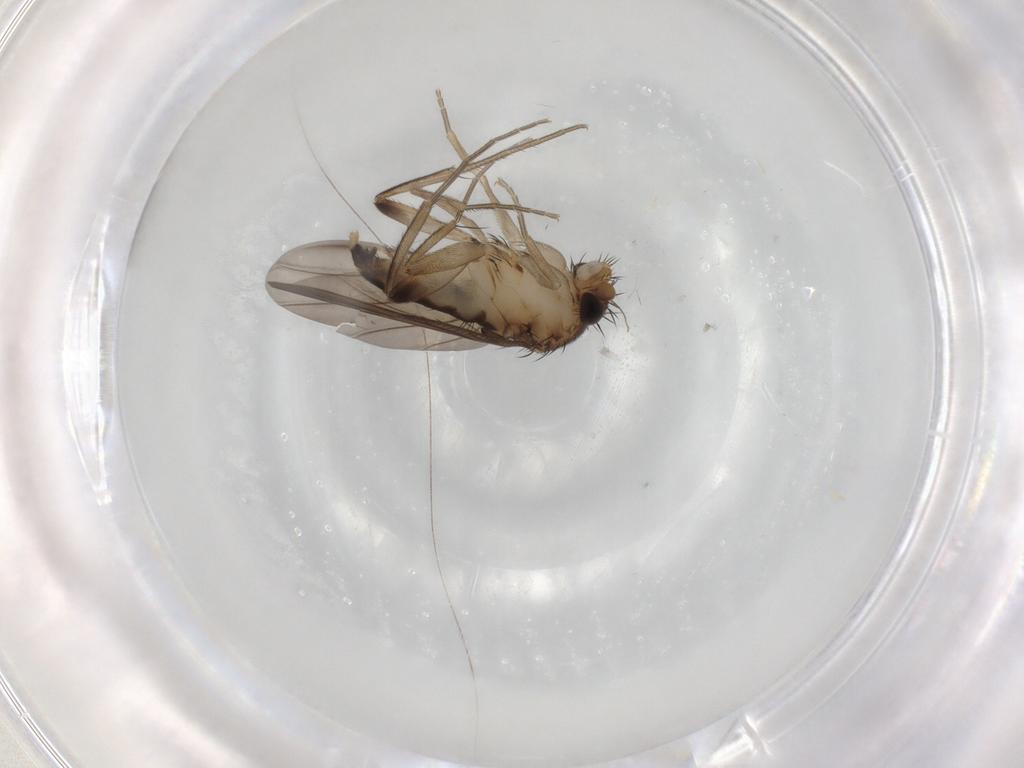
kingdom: Animalia
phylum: Arthropoda
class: Insecta
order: Diptera
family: Phoridae
